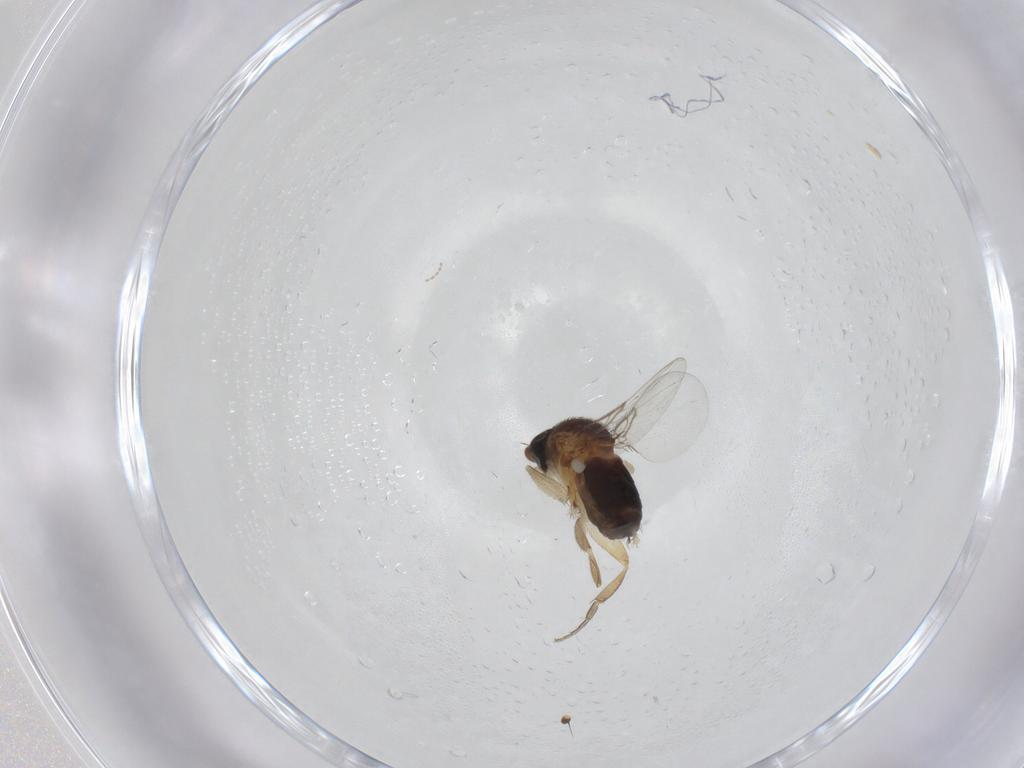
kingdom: Animalia
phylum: Arthropoda
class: Insecta
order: Diptera
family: Chloropidae
